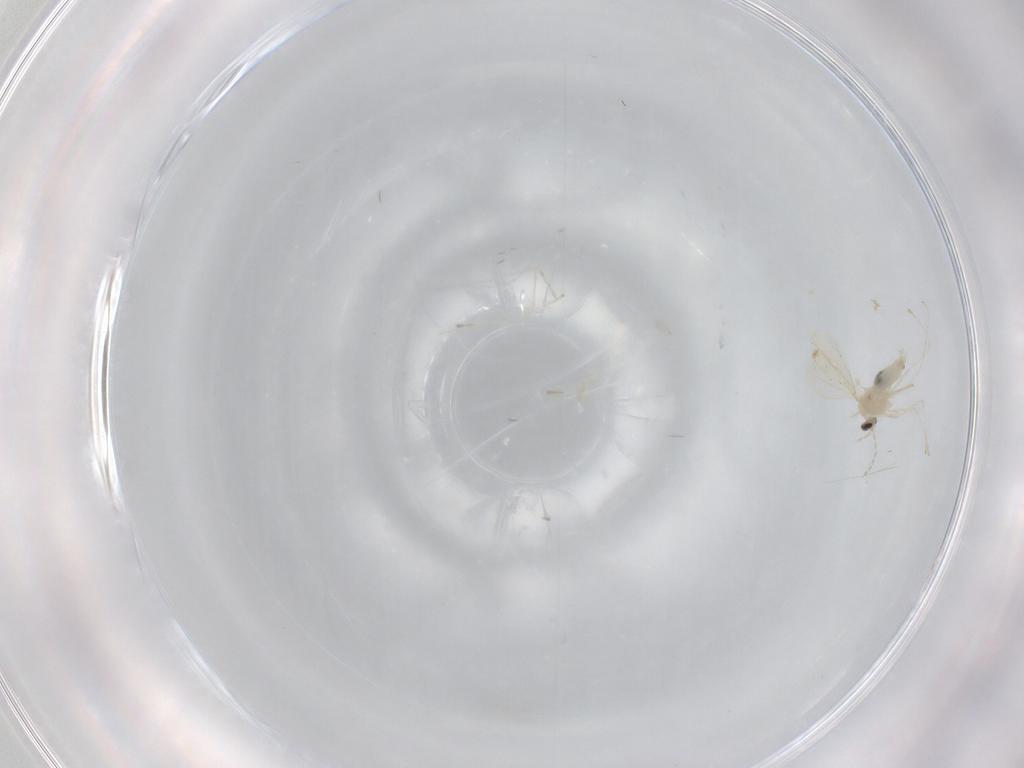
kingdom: Animalia
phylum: Arthropoda
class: Insecta
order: Diptera
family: Cecidomyiidae
